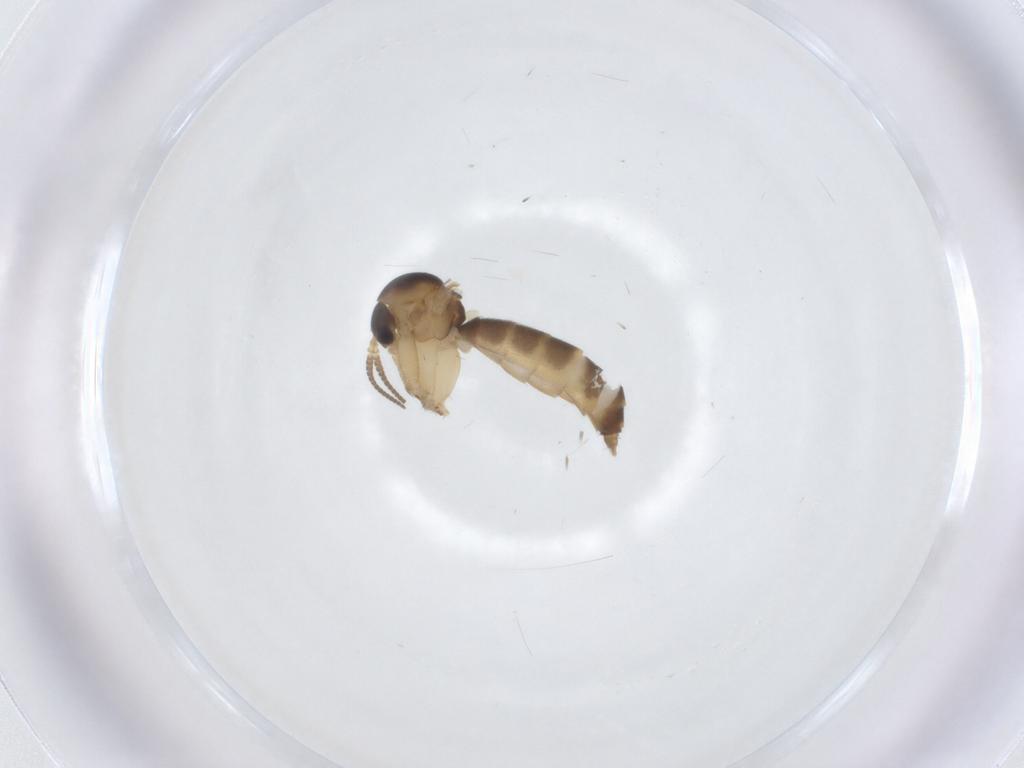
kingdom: Animalia
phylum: Arthropoda
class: Insecta
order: Diptera
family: Mycetophilidae
